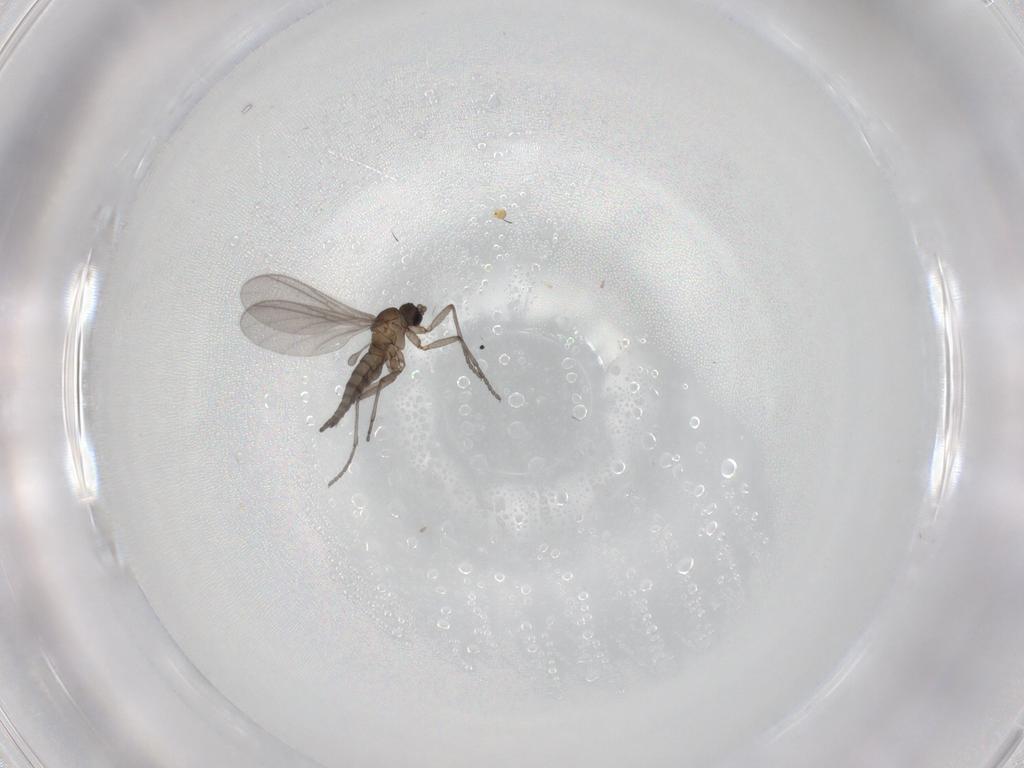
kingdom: Animalia
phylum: Arthropoda
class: Insecta
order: Diptera
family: Sciaridae
